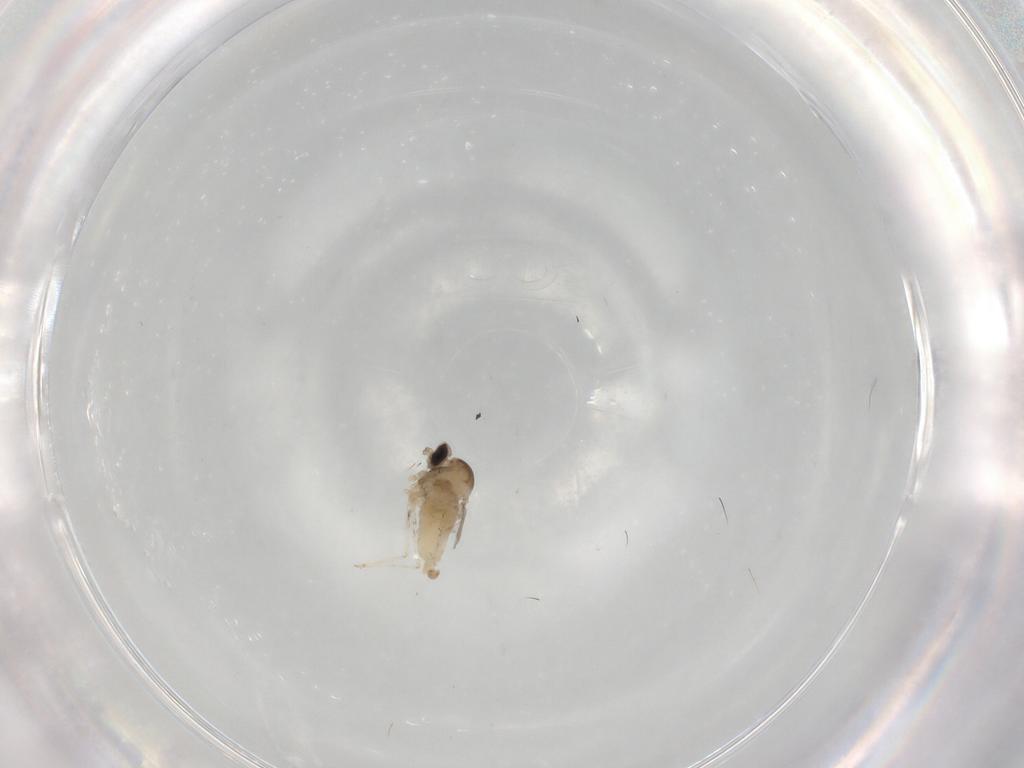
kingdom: Animalia
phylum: Arthropoda
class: Insecta
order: Diptera
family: Cecidomyiidae
